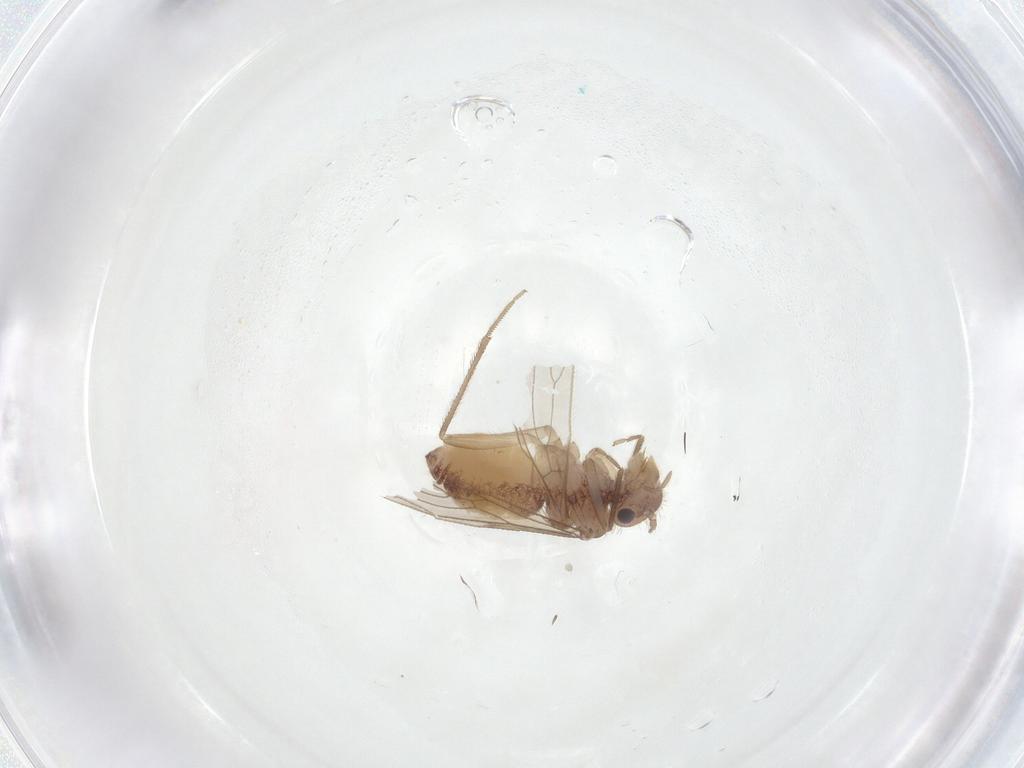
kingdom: Animalia
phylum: Arthropoda
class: Insecta
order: Psocodea
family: Cladiopsocidae
